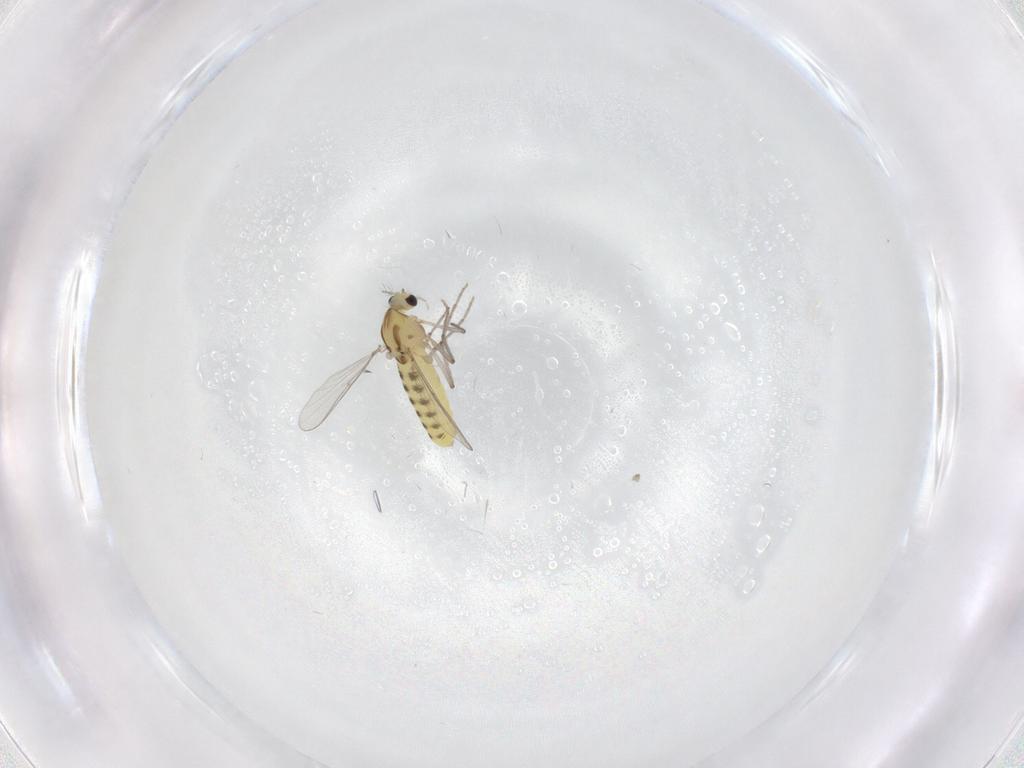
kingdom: Animalia
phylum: Arthropoda
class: Insecta
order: Diptera
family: Chironomidae
